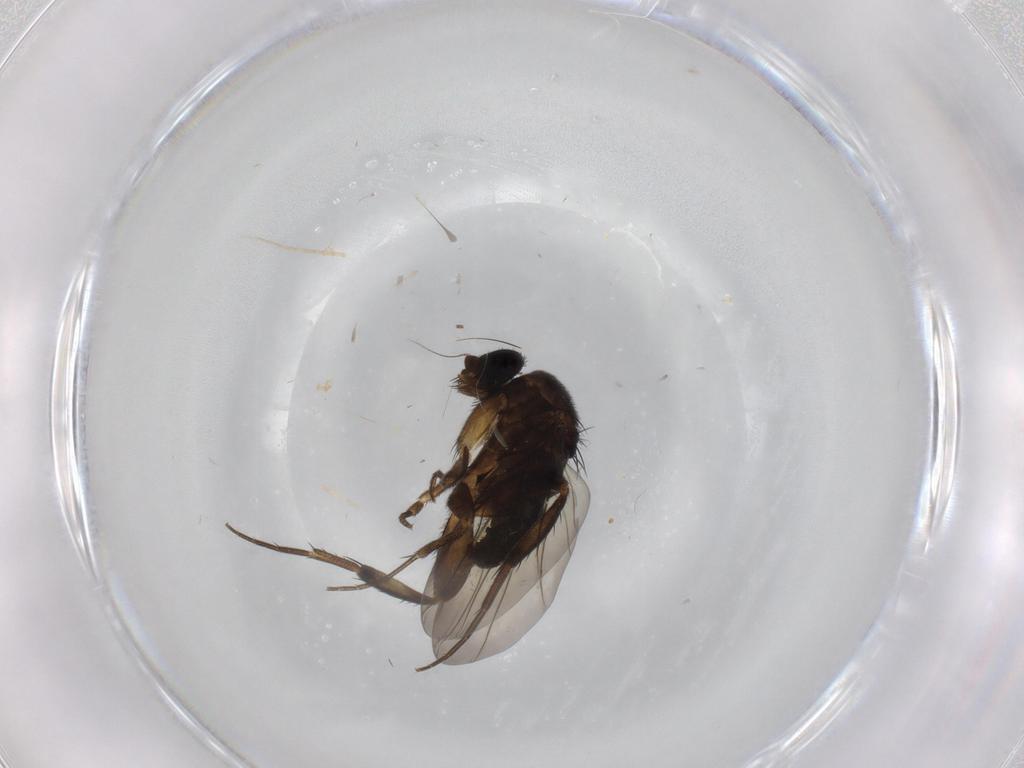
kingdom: Animalia
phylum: Arthropoda
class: Insecta
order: Diptera
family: Phoridae
